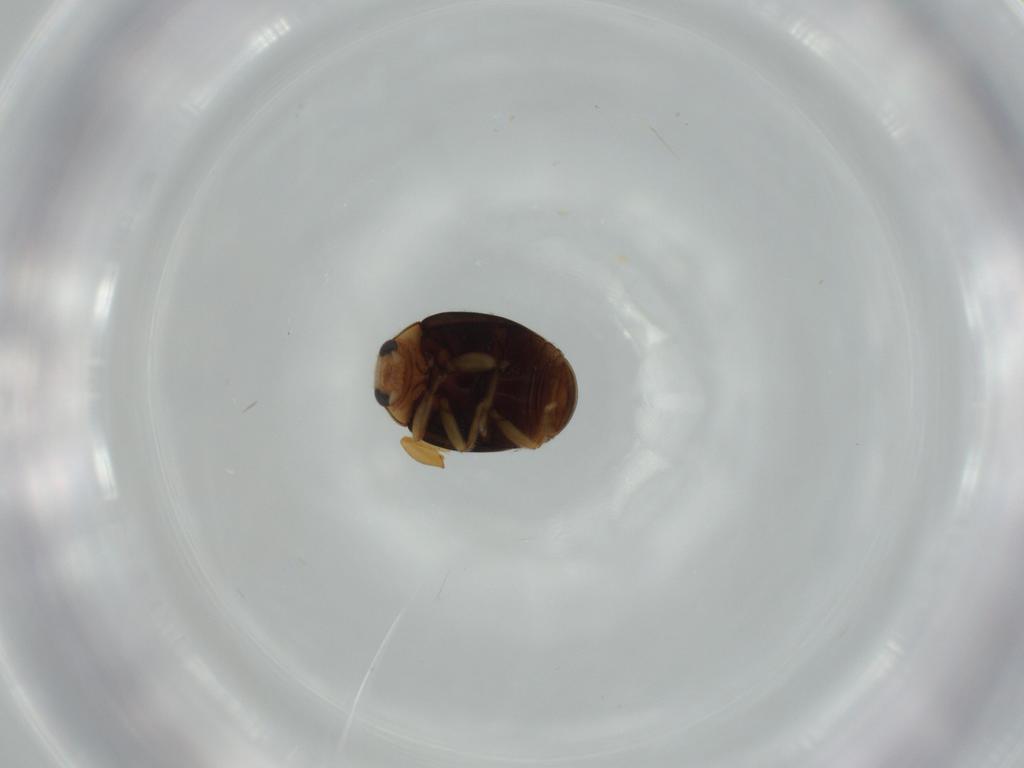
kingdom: Animalia
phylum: Arthropoda
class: Insecta
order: Coleoptera
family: Coccinellidae
